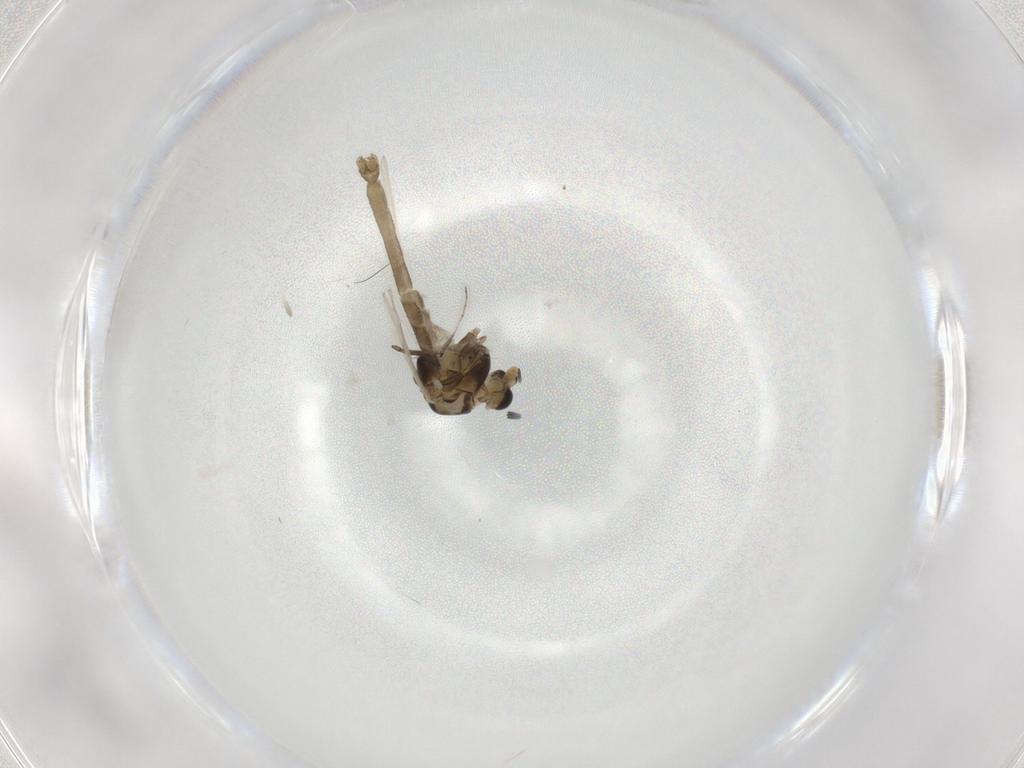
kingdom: Animalia
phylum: Arthropoda
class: Insecta
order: Diptera
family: Chironomidae
